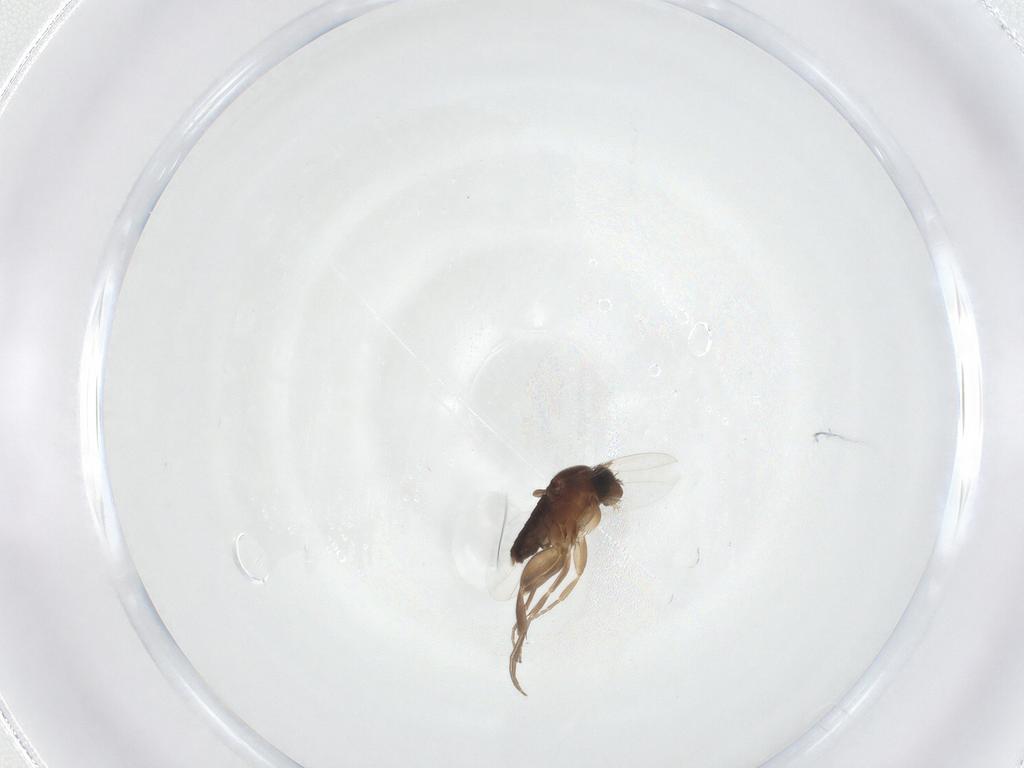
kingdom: Animalia
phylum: Arthropoda
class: Insecta
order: Diptera
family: Phoridae
